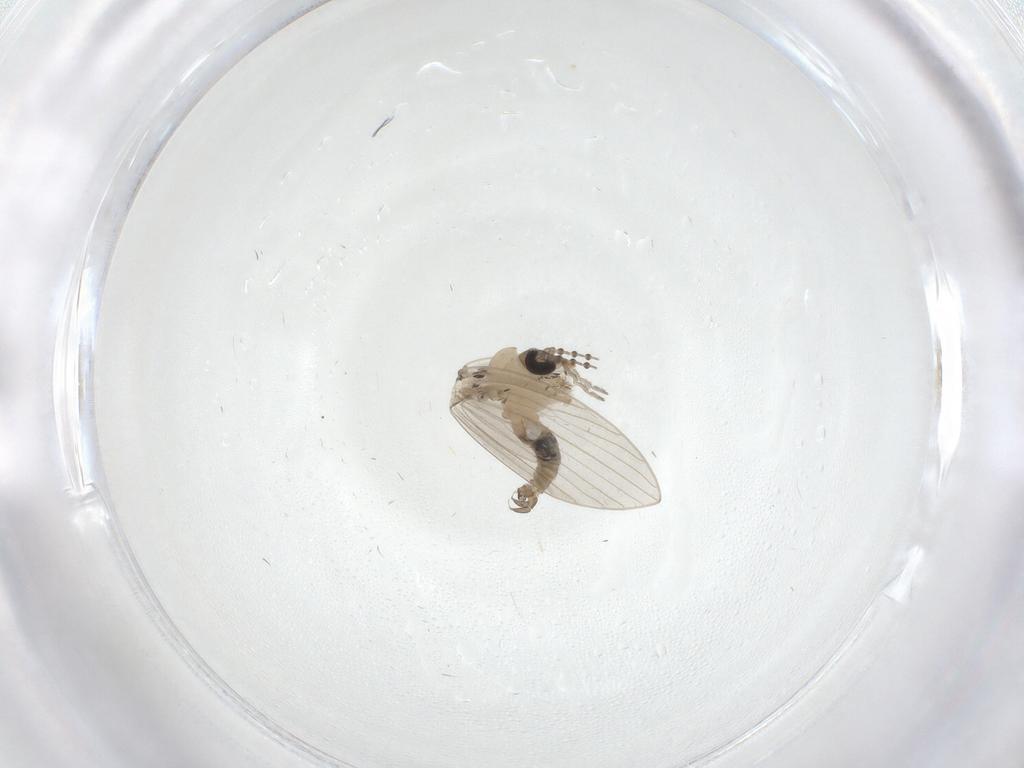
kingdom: Animalia
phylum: Arthropoda
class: Insecta
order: Diptera
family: Psychodidae
